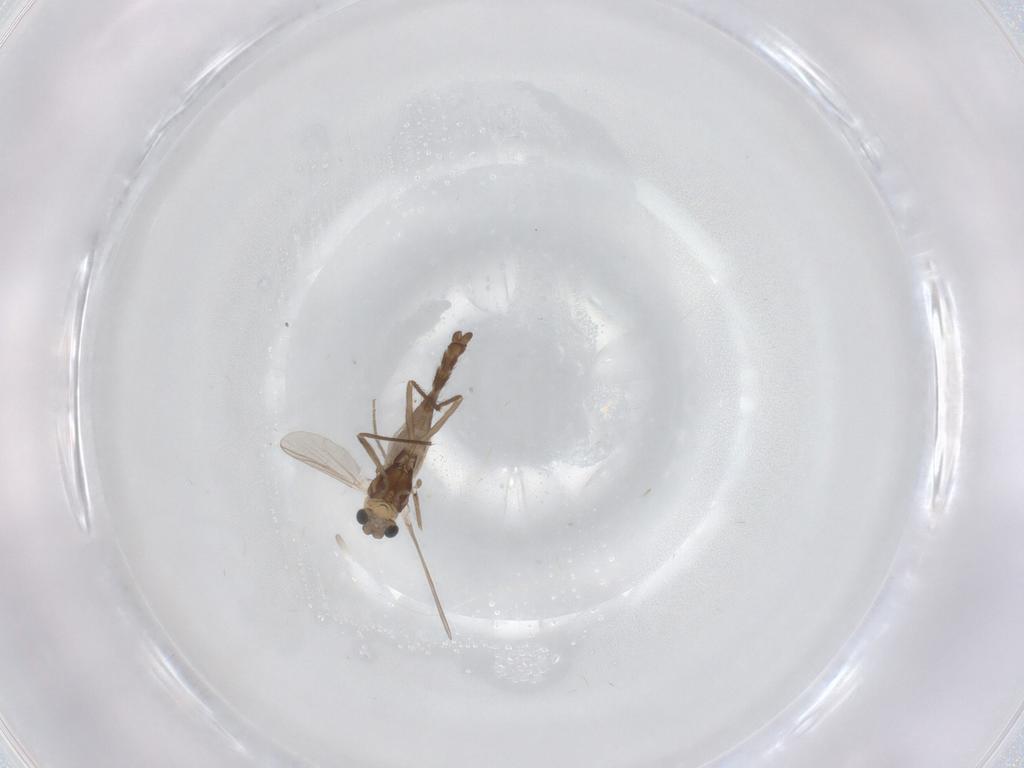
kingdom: Animalia
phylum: Arthropoda
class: Insecta
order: Diptera
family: Chironomidae
